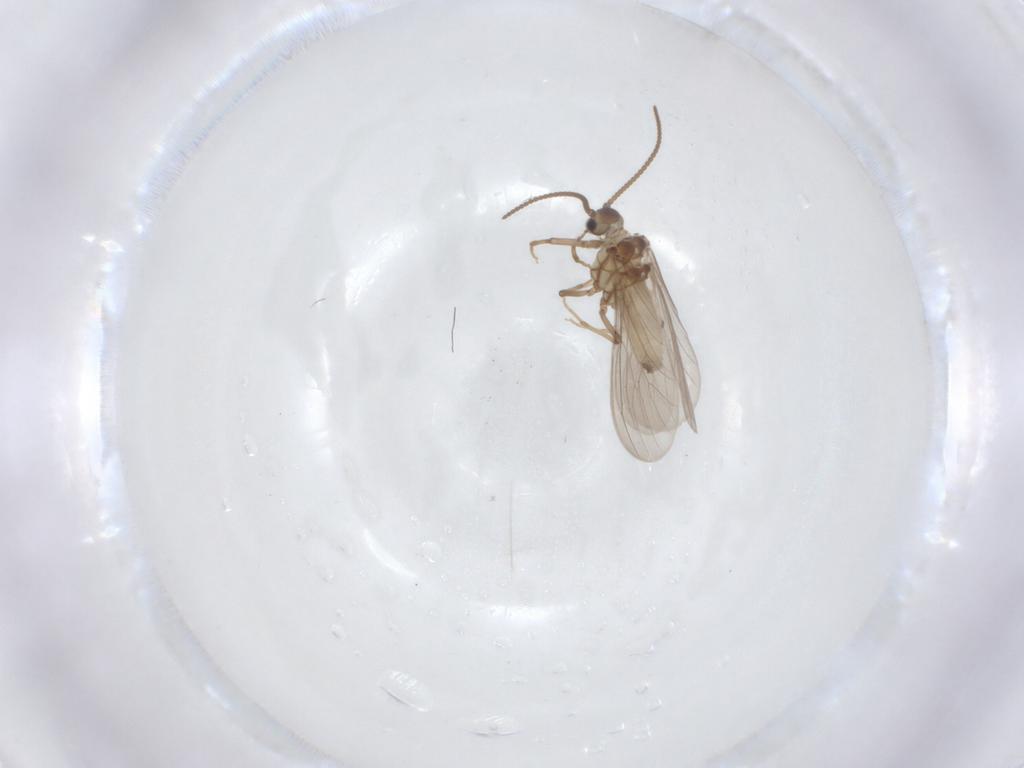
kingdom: Animalia
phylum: Arthropoda
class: Insecta
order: Neuroptera
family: Coniopterygidae
